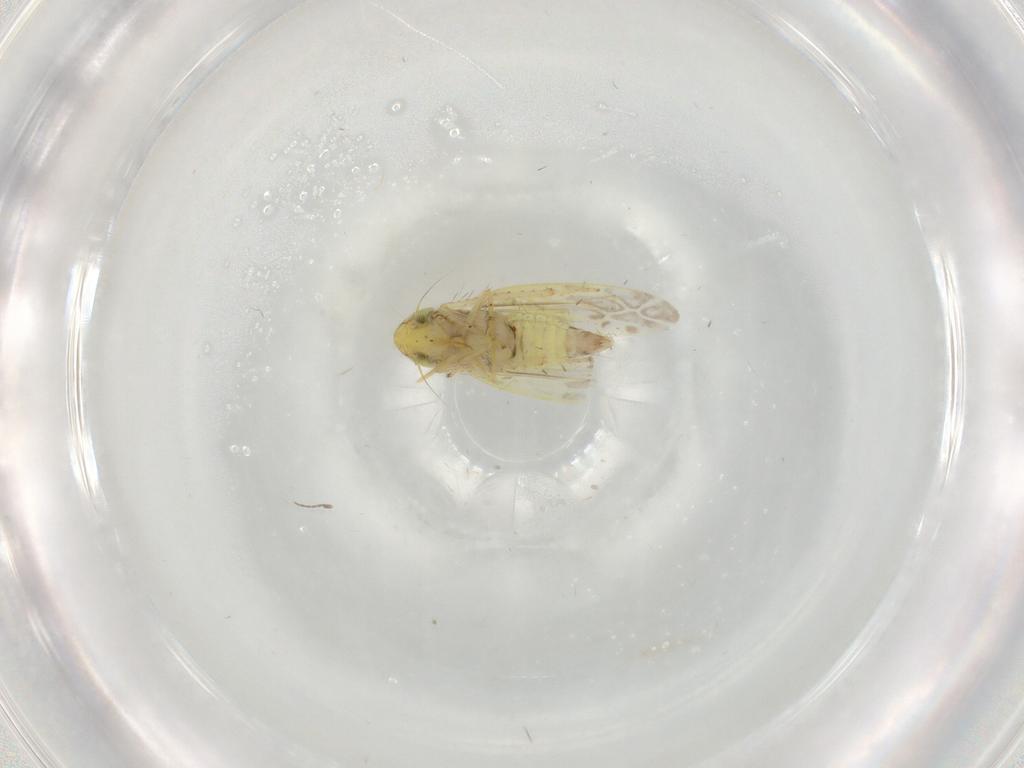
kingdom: Animalia
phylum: Arthropoda
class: Insecta
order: Hemiptera
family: Cicadellidae
